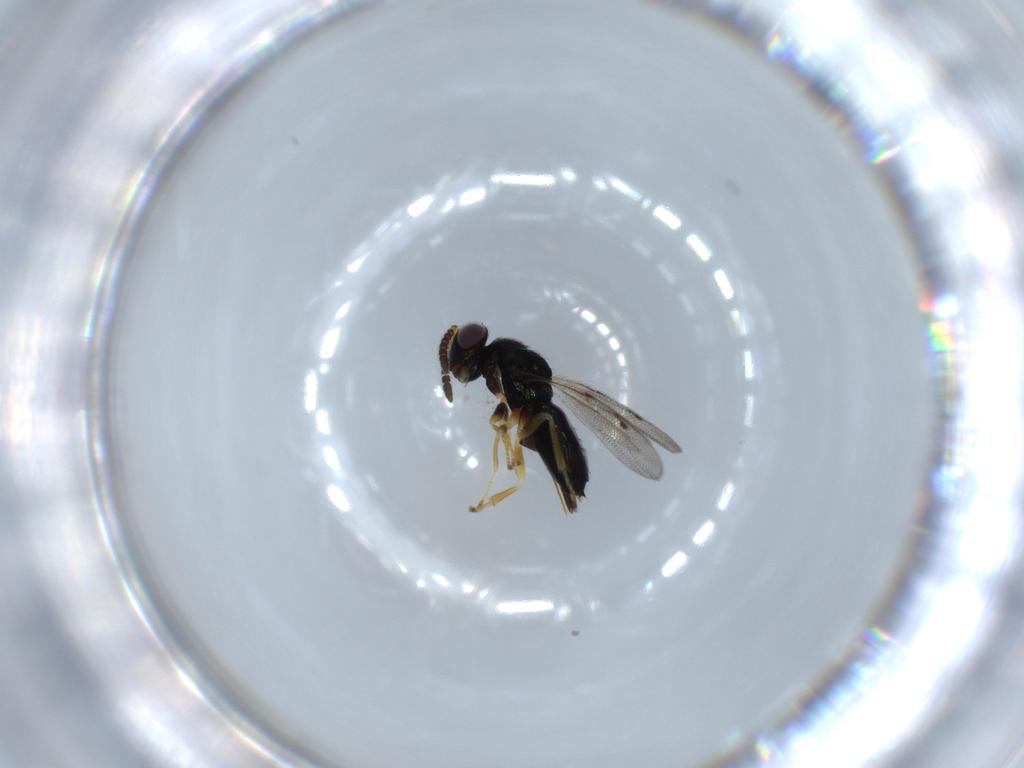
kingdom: Animalia
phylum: Arthropoda
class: Insecta
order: Hymenoptera
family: Pirenidae
